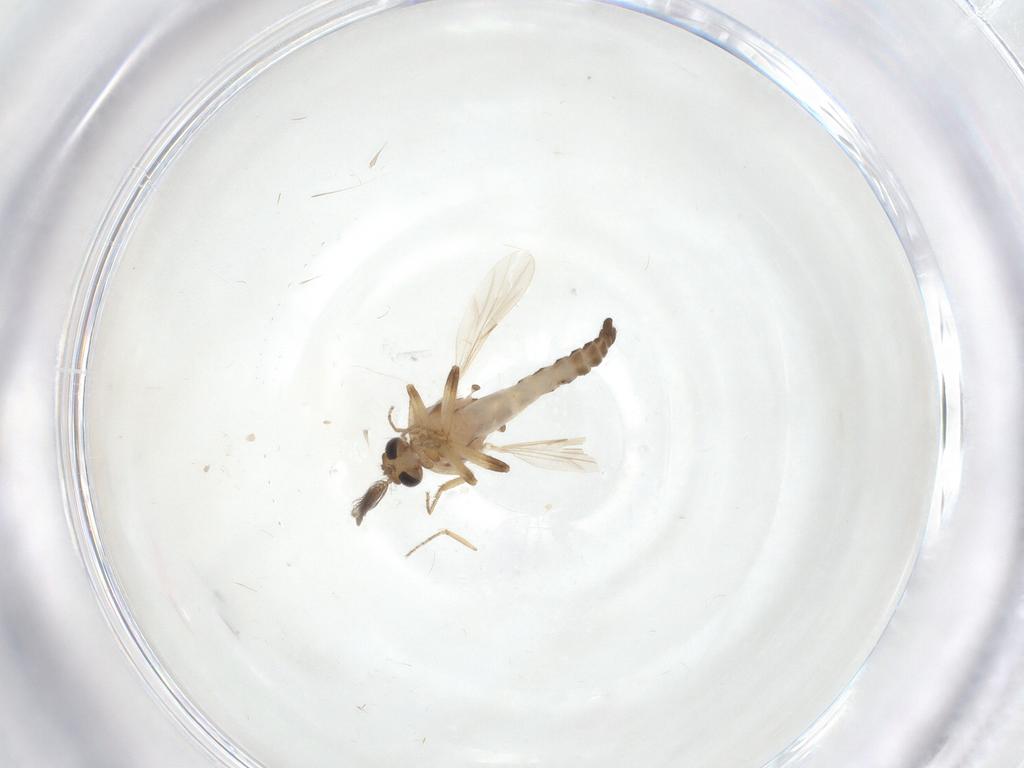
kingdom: Animalia
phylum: Arthropoda
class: Insecta
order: Diptera
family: Ceratopogonidae
